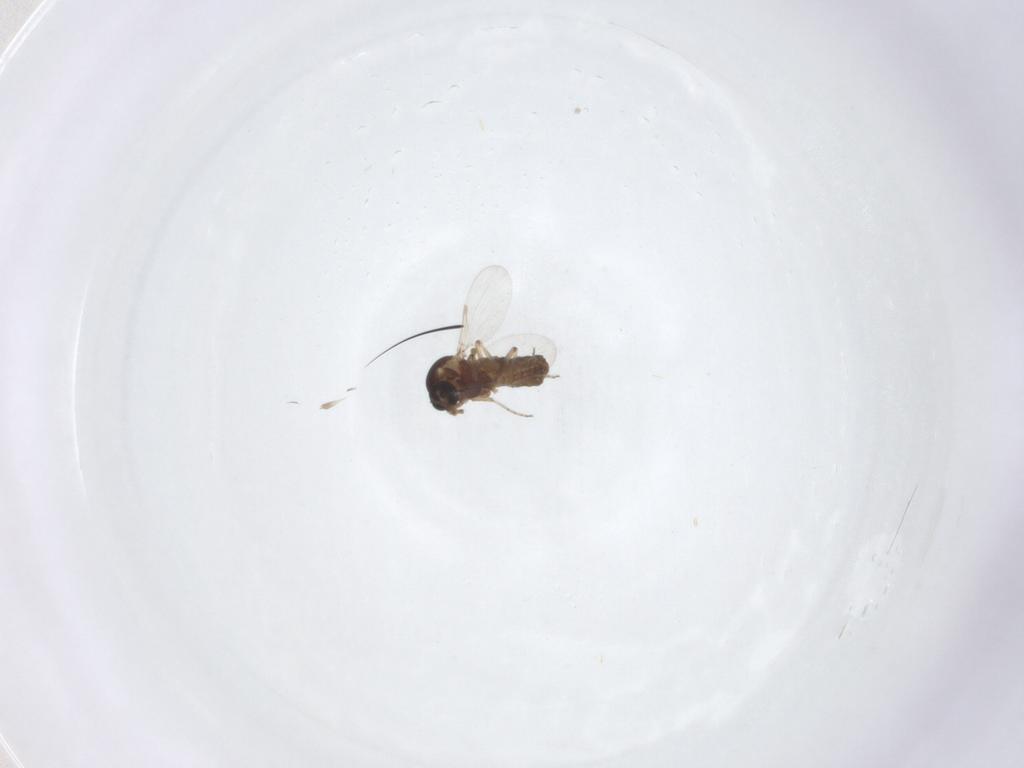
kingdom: Animalia
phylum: Arthropoda
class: Insecta
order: Diptera
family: Ceratopogonidae
